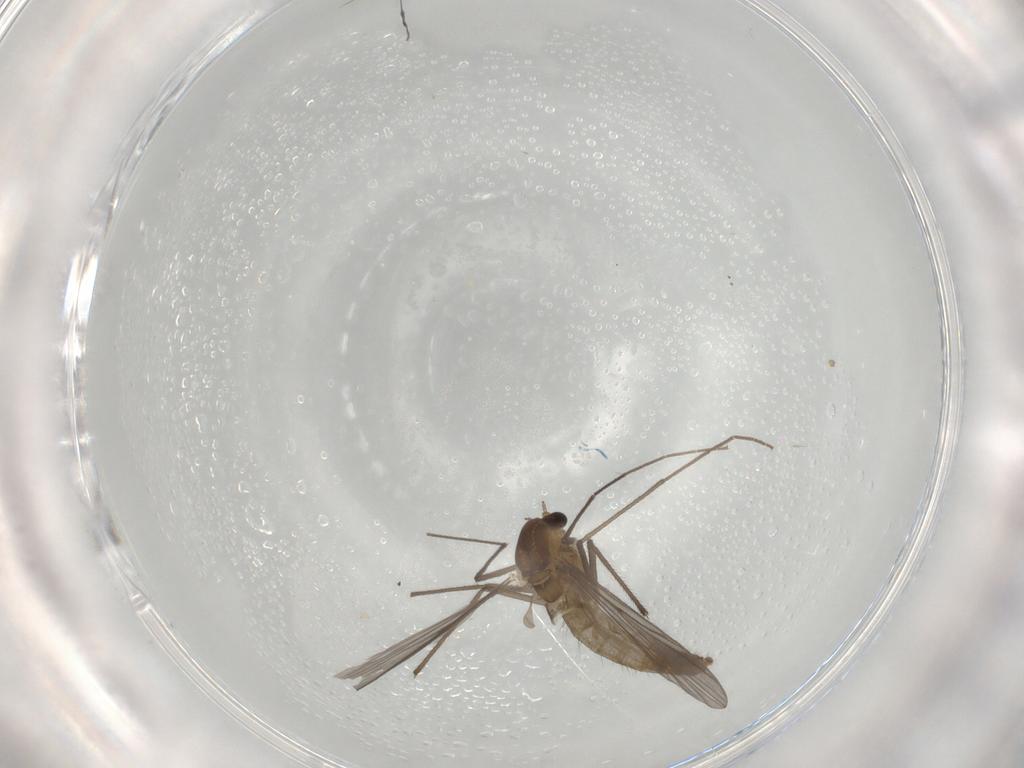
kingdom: Animalia
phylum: Arthropoda
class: Insecta
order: Diptera
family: Chironomidae
